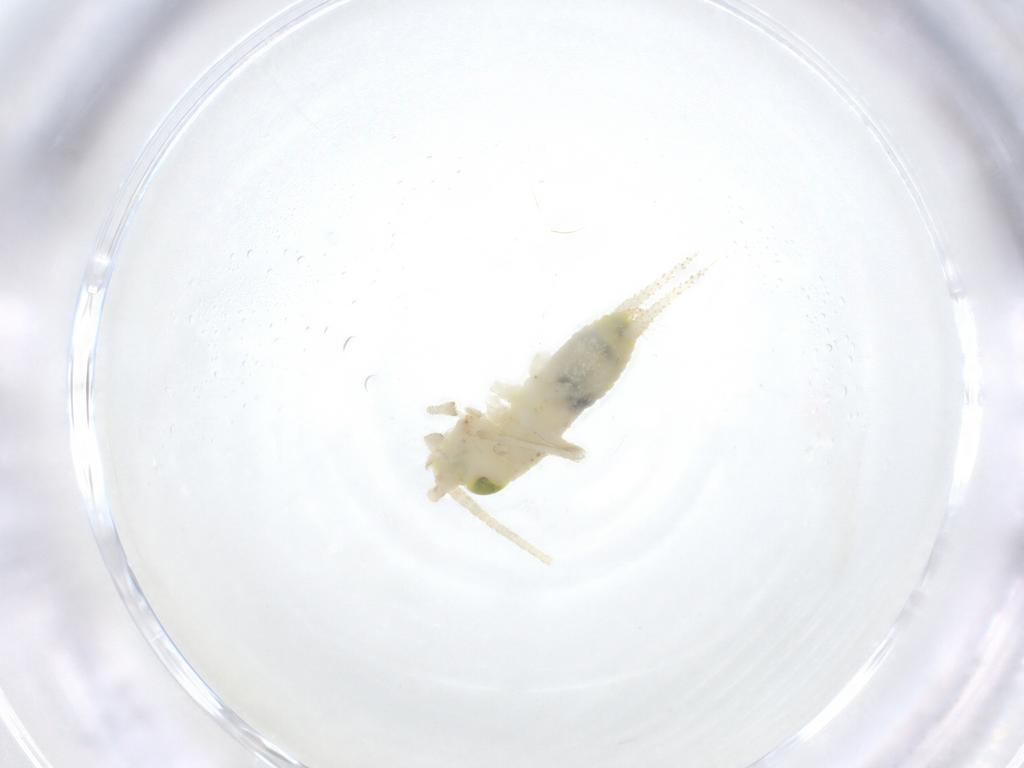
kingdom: Animalia
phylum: Arthropoda
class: Insecta
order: Orthoptera
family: Trigonidiidae
